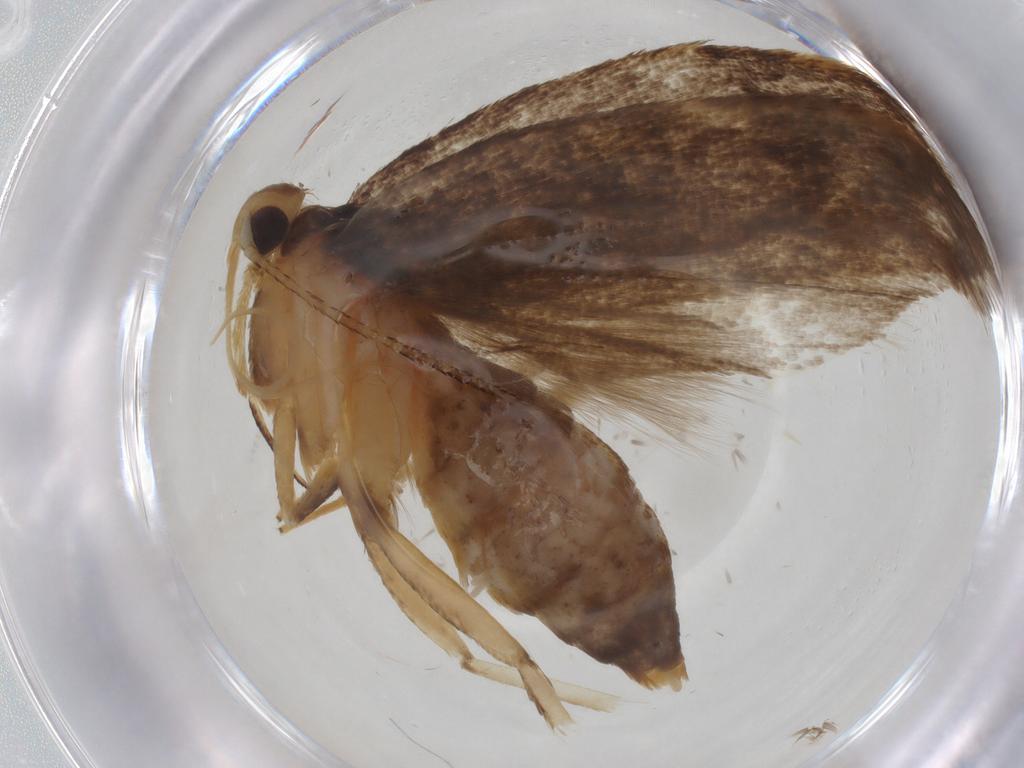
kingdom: Animalia
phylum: Arthropoda
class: Insecta
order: Lepidoptera
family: Lecithoceridae
